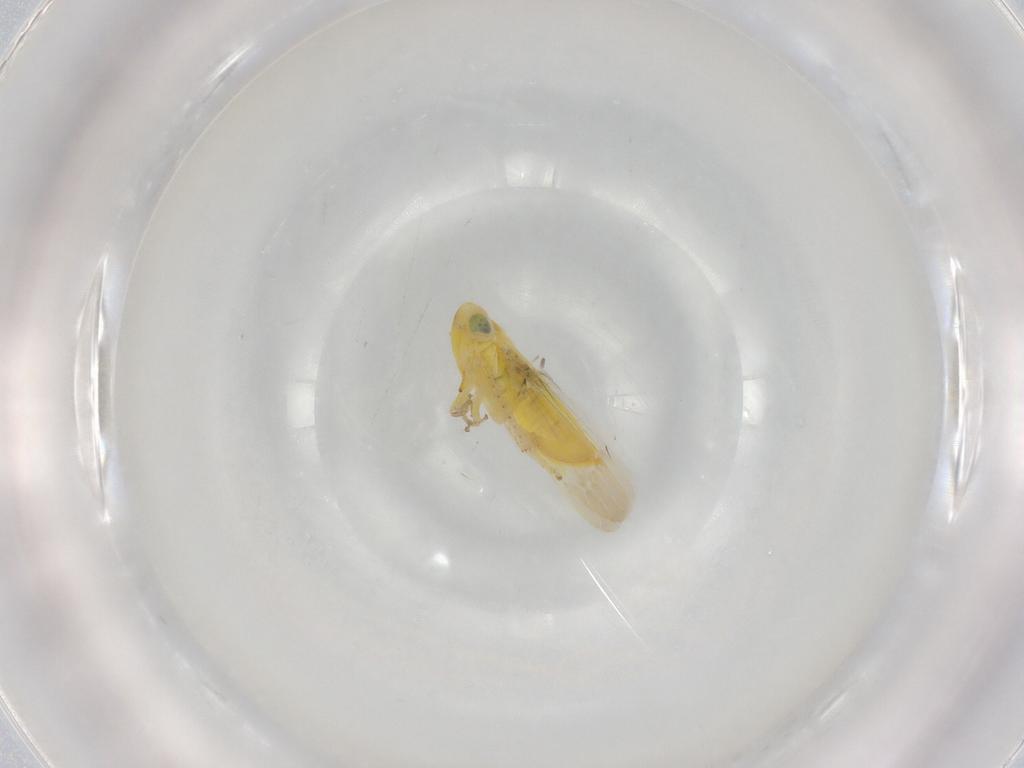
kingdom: Animalia
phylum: Arthropoda
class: Insecta
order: Hemiptera
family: Cicadellidae
